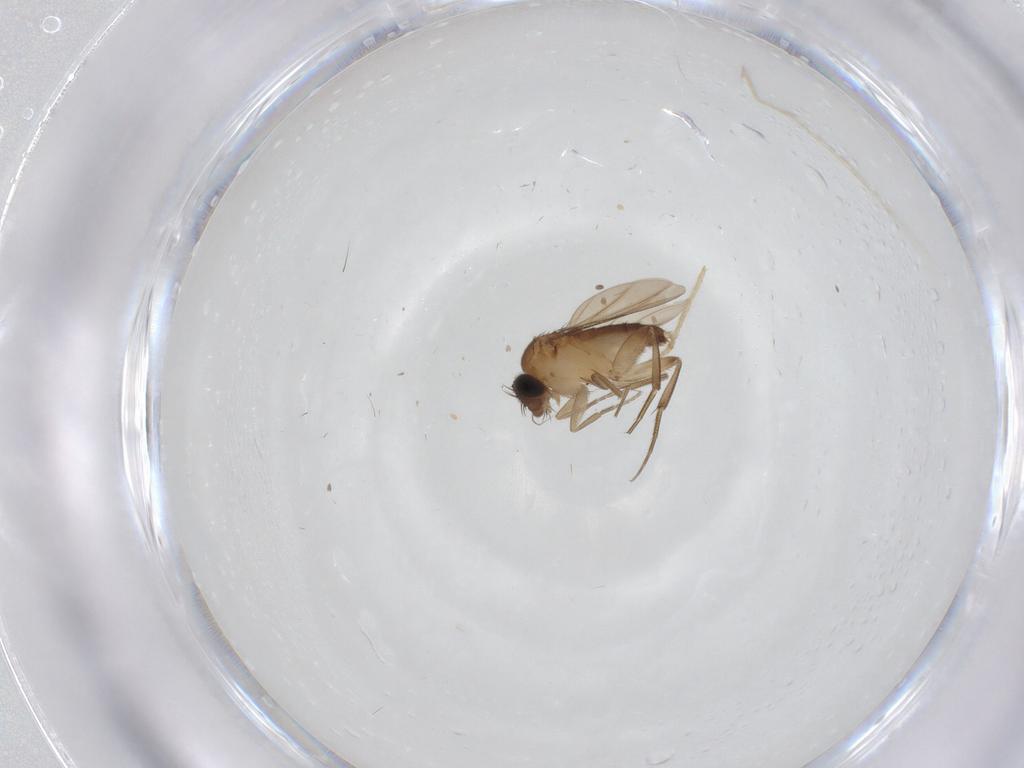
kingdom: Animalia
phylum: Arthropoda
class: Insecta
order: Diptera
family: Phoridae
